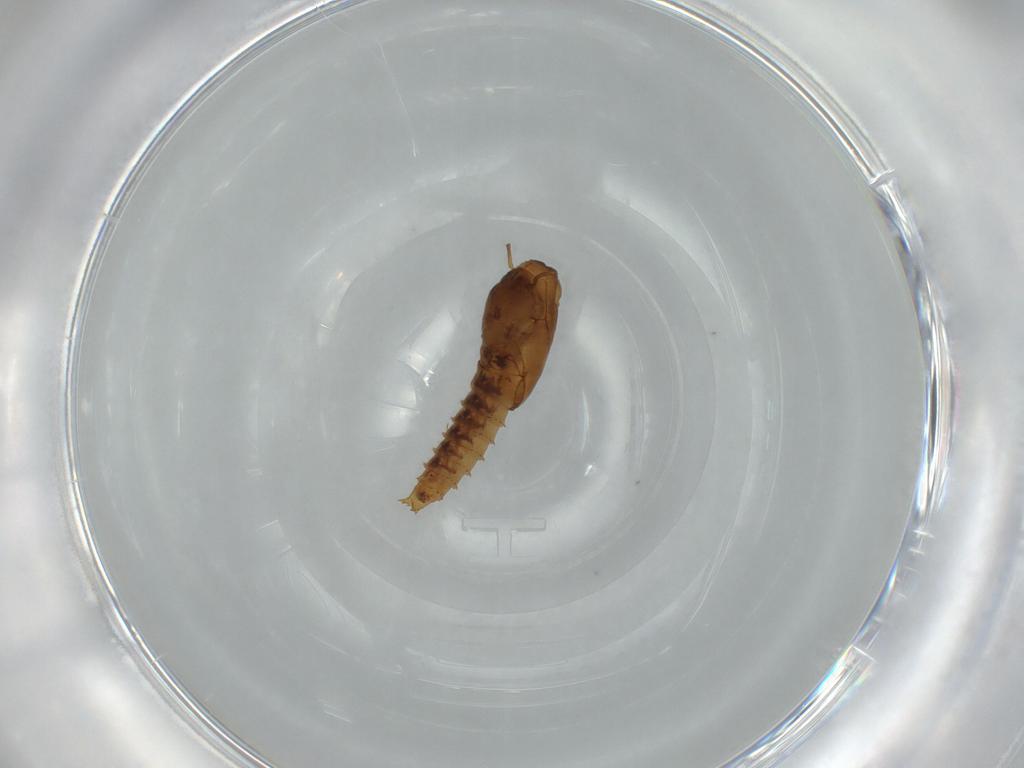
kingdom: Animalia
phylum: Arthropoda
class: Insecta
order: Diptera
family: Ceratopogonidae
